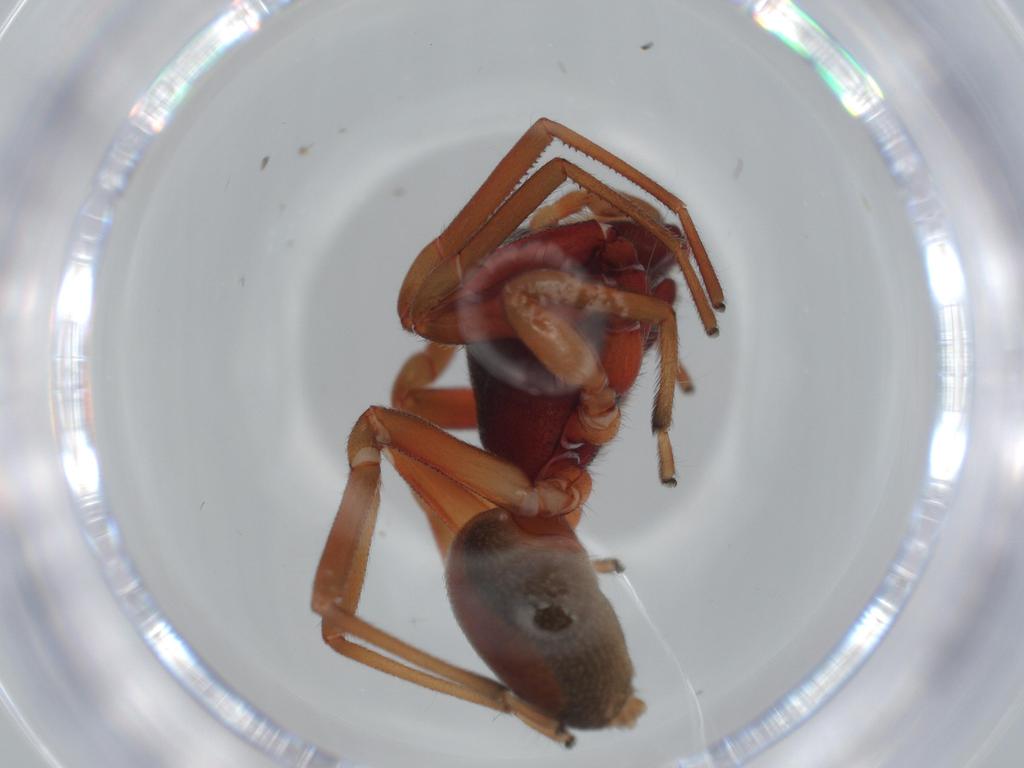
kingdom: Animalia
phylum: Arthropoda
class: Arachnida
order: Araneae
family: Trachelidae
